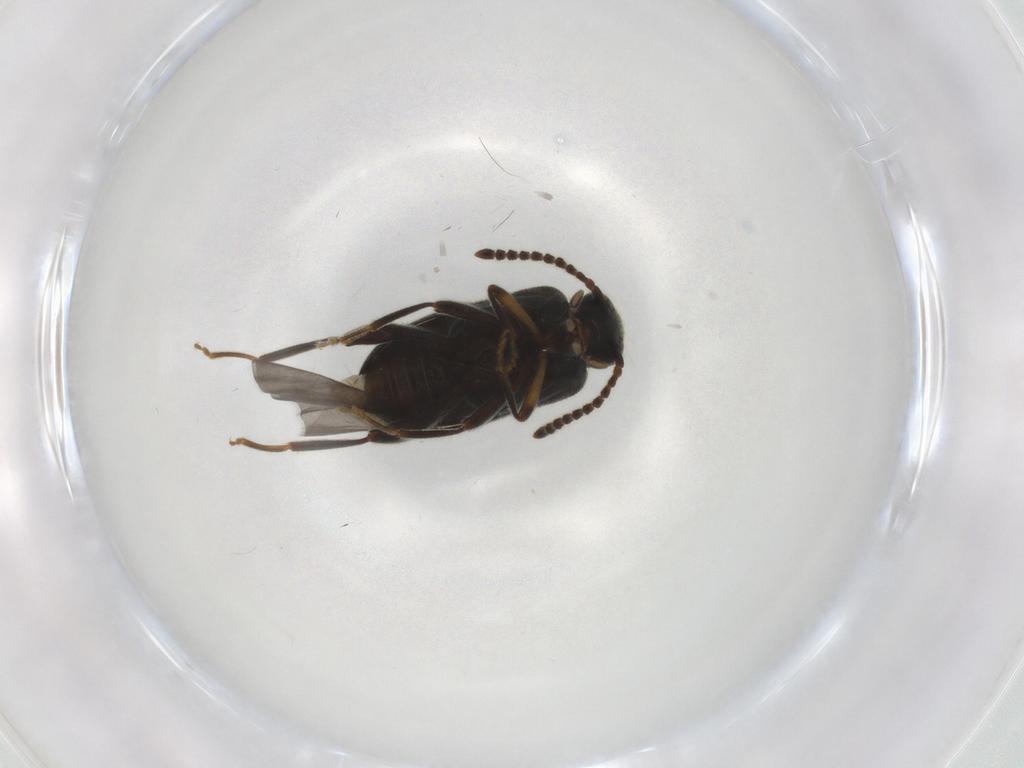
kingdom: Animalia
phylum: Arthropoda
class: Insecta
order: Coleoptera
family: Aderidae
